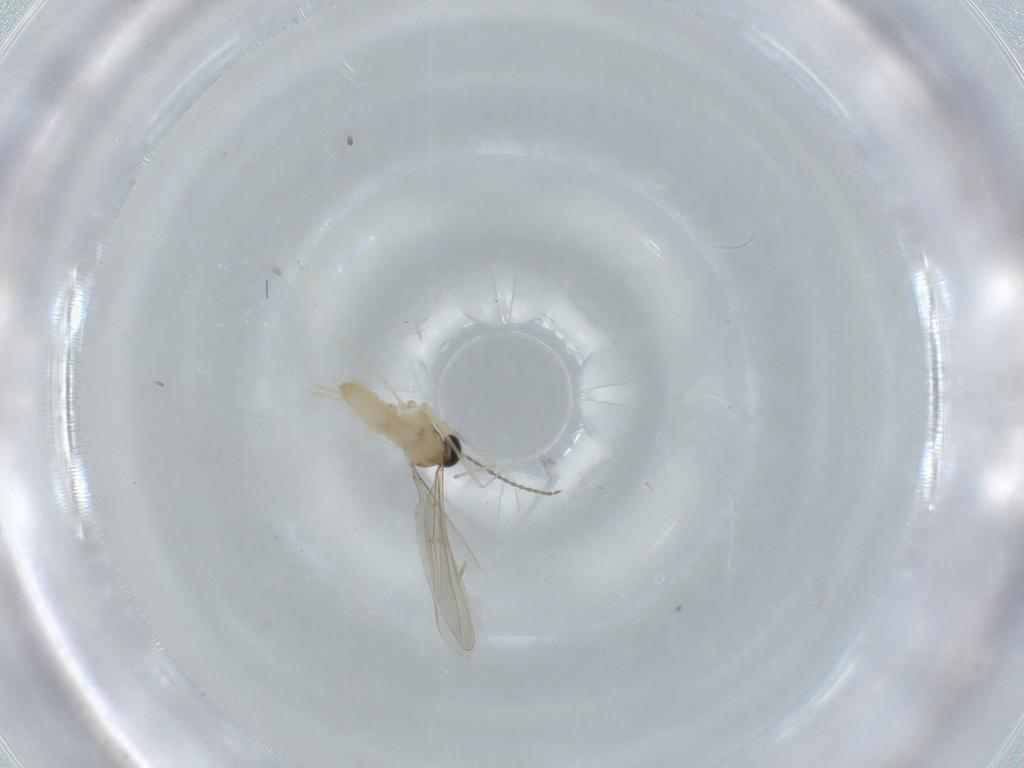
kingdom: Animalia
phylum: Arthropoda
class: Insecta
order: Diptera
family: Cecidomyiidae
